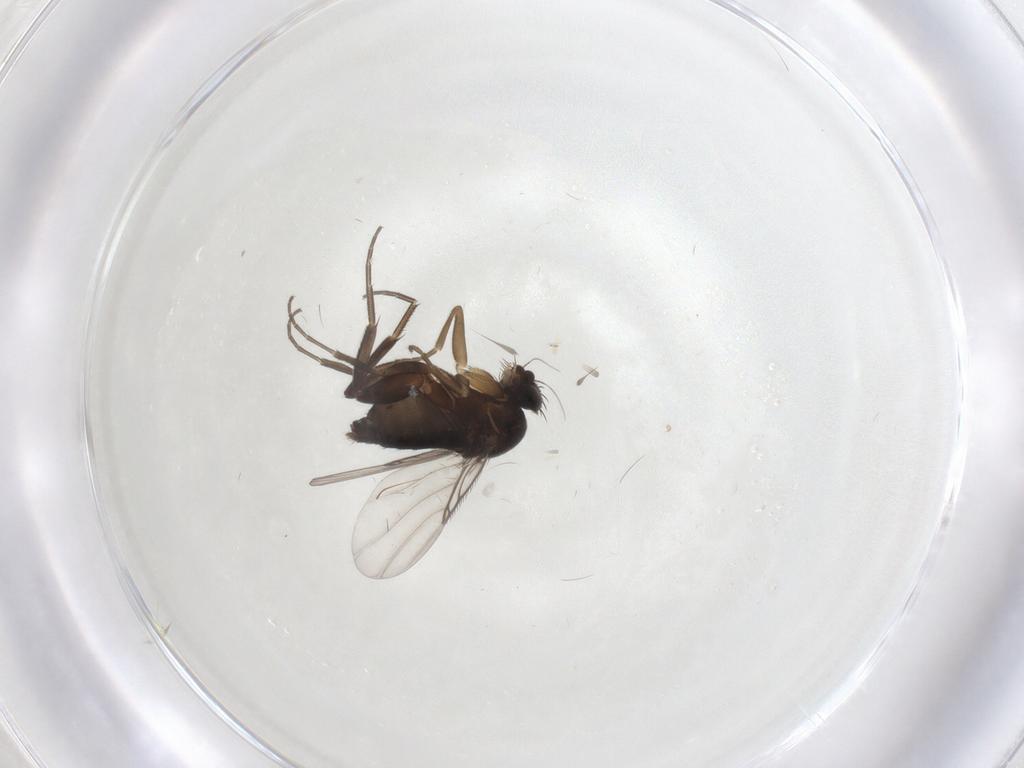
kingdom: Animalia
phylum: Arthropoda
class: Insecta
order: Diptera
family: Phoridae
